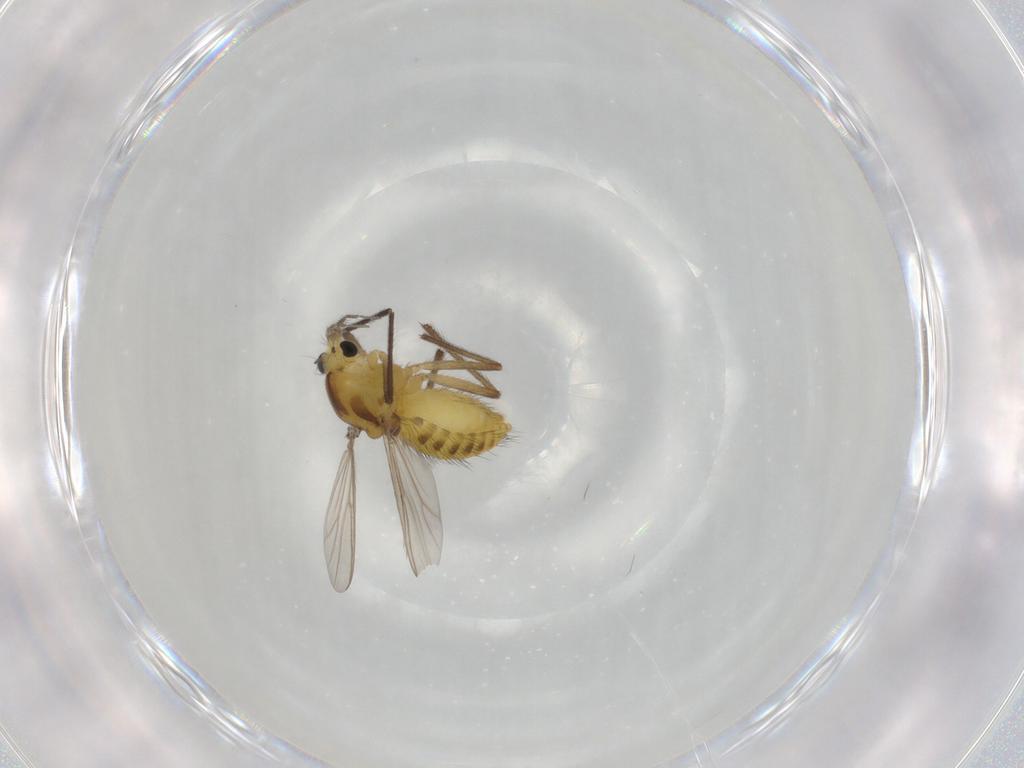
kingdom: Animalia
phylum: Arthropoda
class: Insecta
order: Diptera
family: Chironomidae
